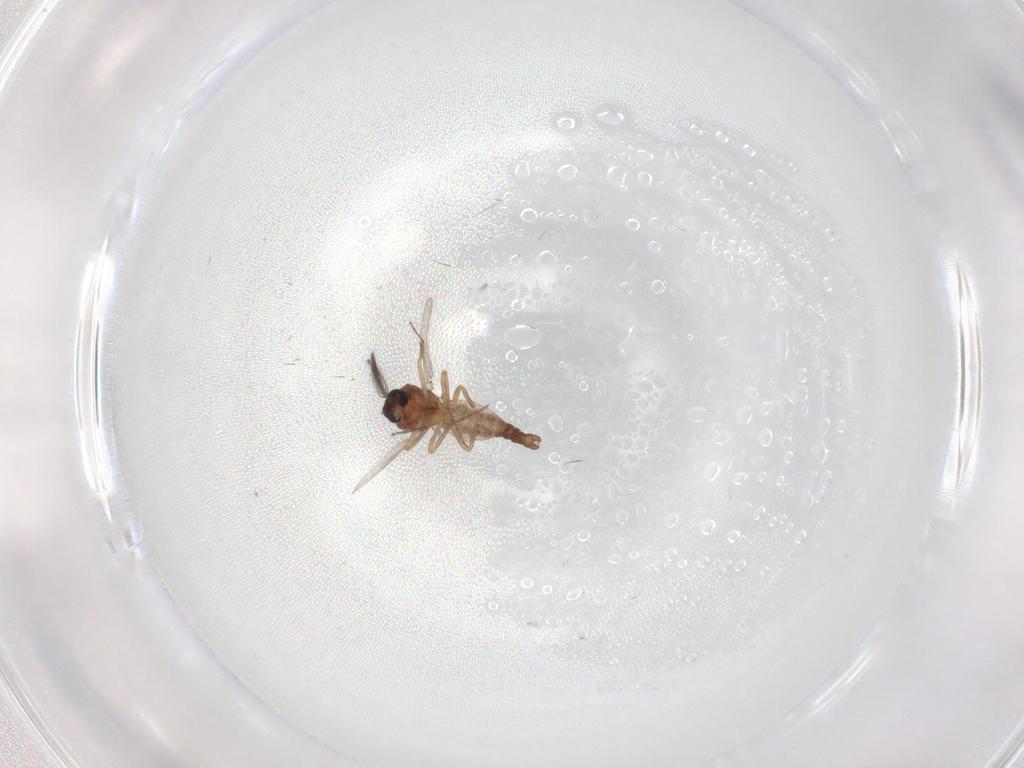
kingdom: Animalia
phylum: Arthropoda
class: Insecta
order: Diptera
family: Ceratopogonidae
